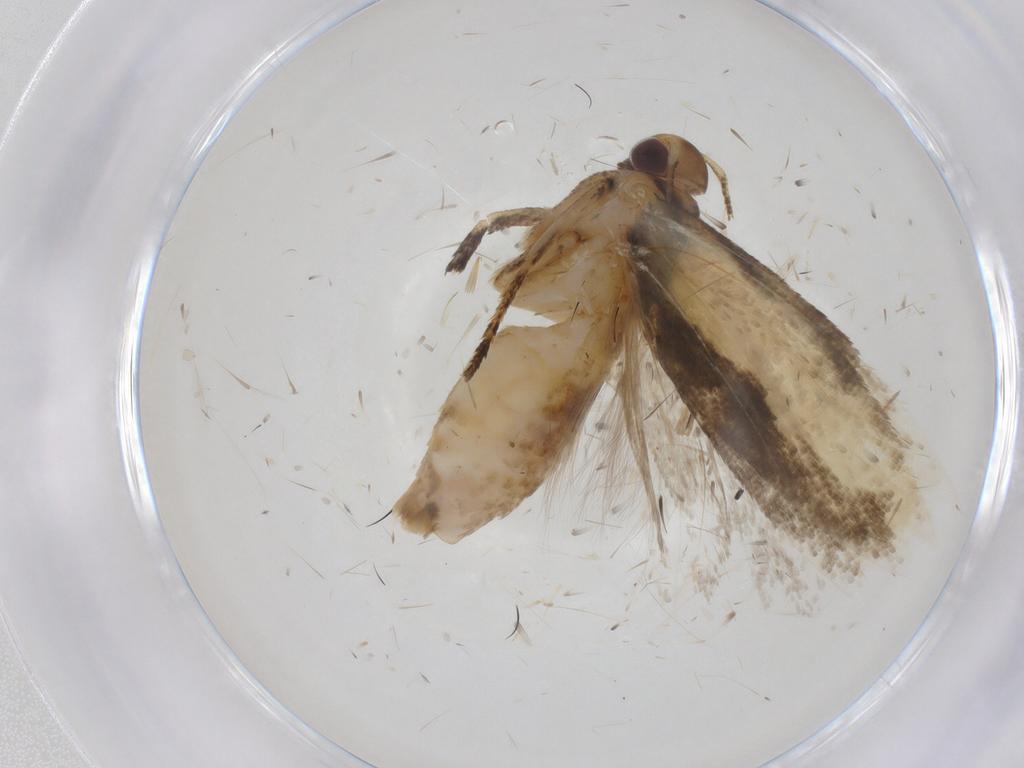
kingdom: Animalia
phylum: Arthropoda
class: Insecta
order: Lepidoptera
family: Gelechiidae
